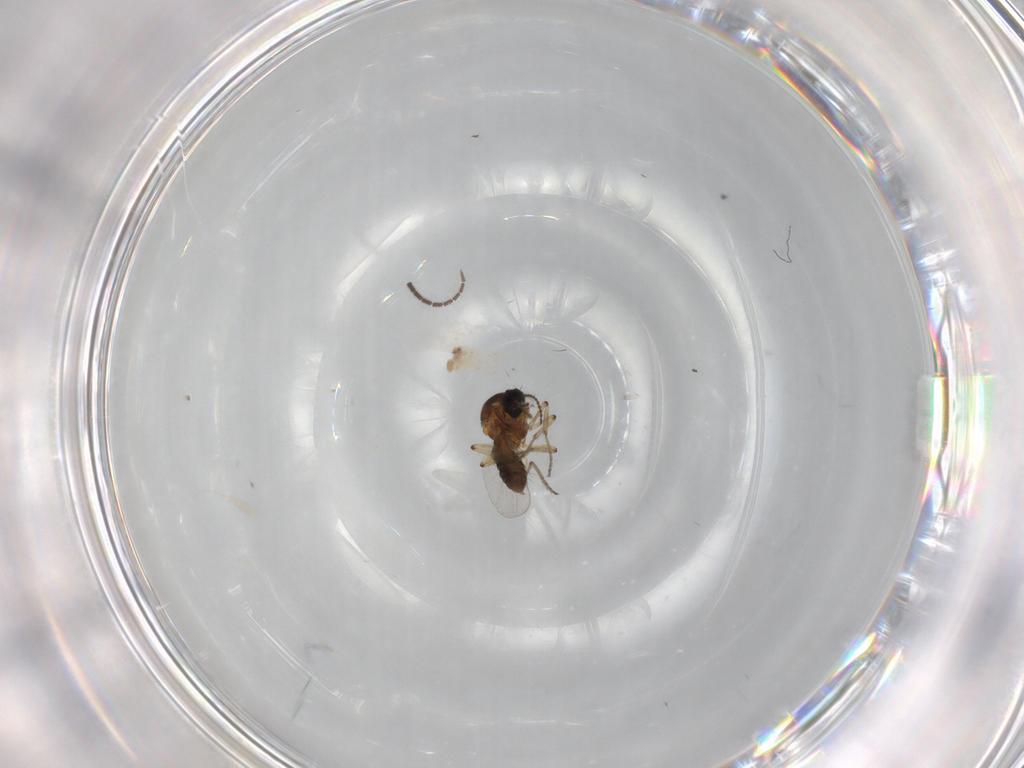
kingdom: Animalia
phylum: Arthropoda
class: Insecta
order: Diptera
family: Ceratopogonidae
